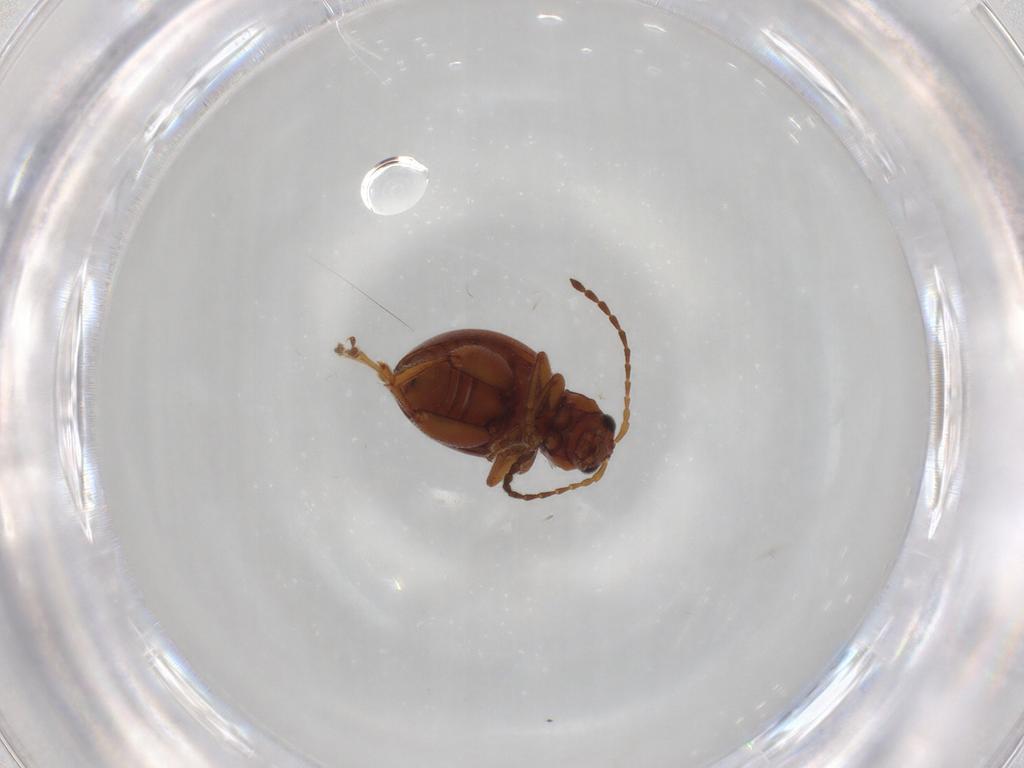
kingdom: Animalia
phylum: Arthropoda
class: Insecta
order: Coleoptera
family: Chrysomelidae
